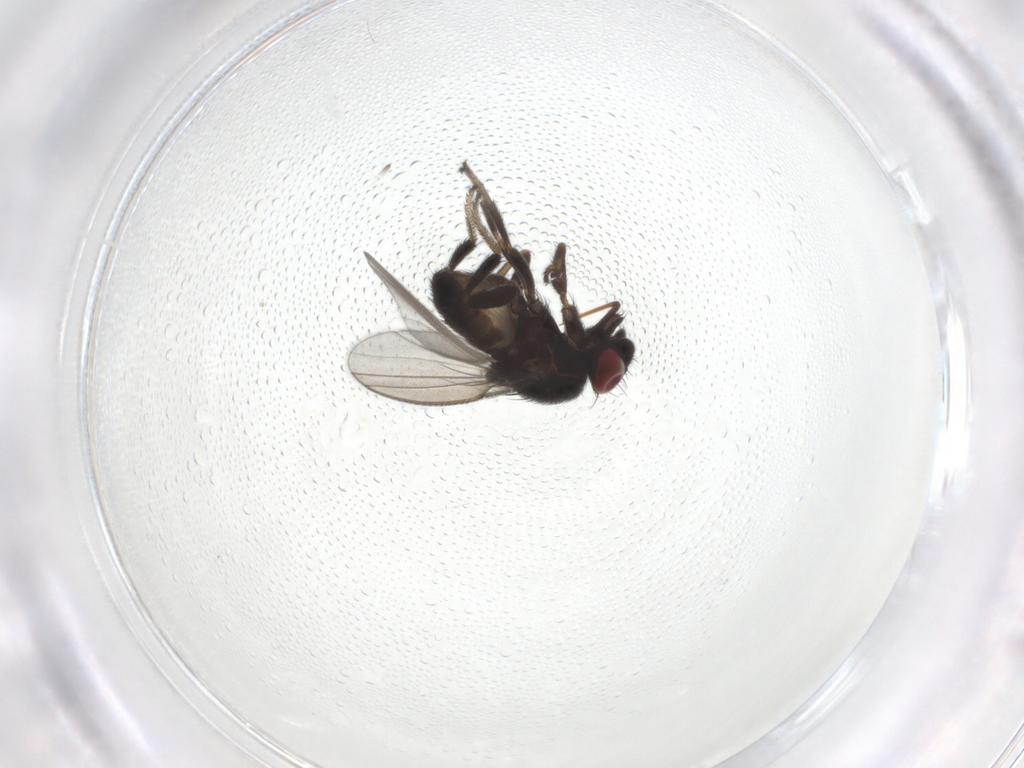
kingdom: Animalia
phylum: Arthropoda
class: Insecta
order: Diptera
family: Milichiidae
